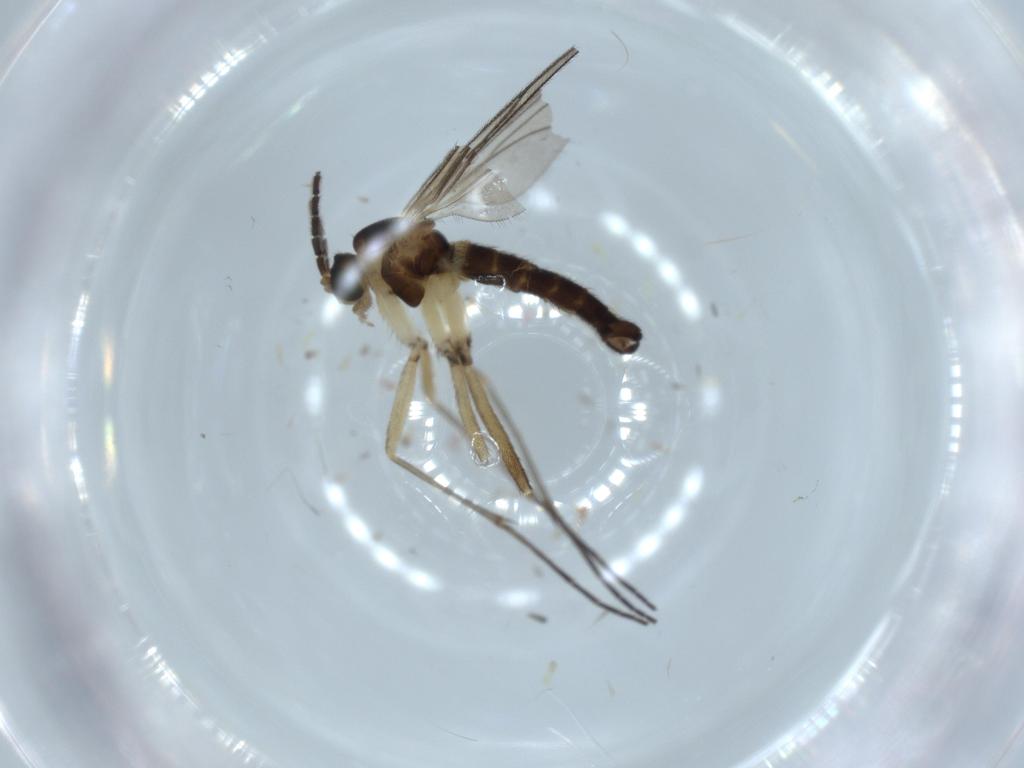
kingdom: Animalia
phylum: Arthropoda
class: Insecta
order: Diptera
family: Sciaridae
